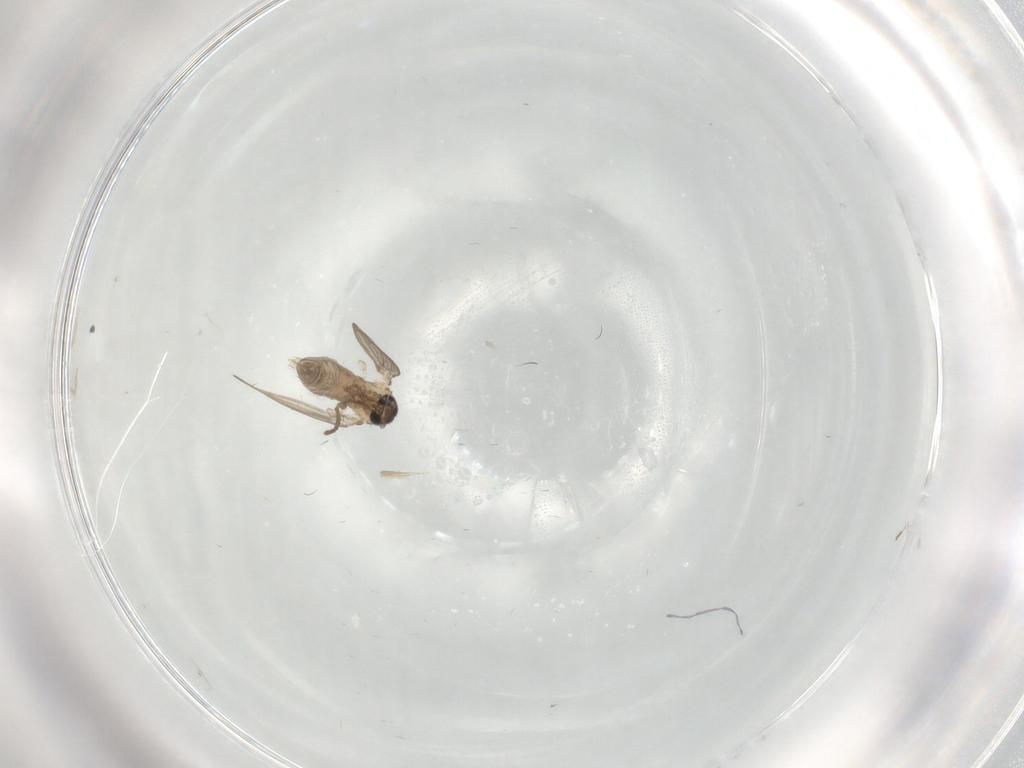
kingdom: Animalia
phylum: Arthropoda
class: Insecta
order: Diptera
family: Psychodidae
